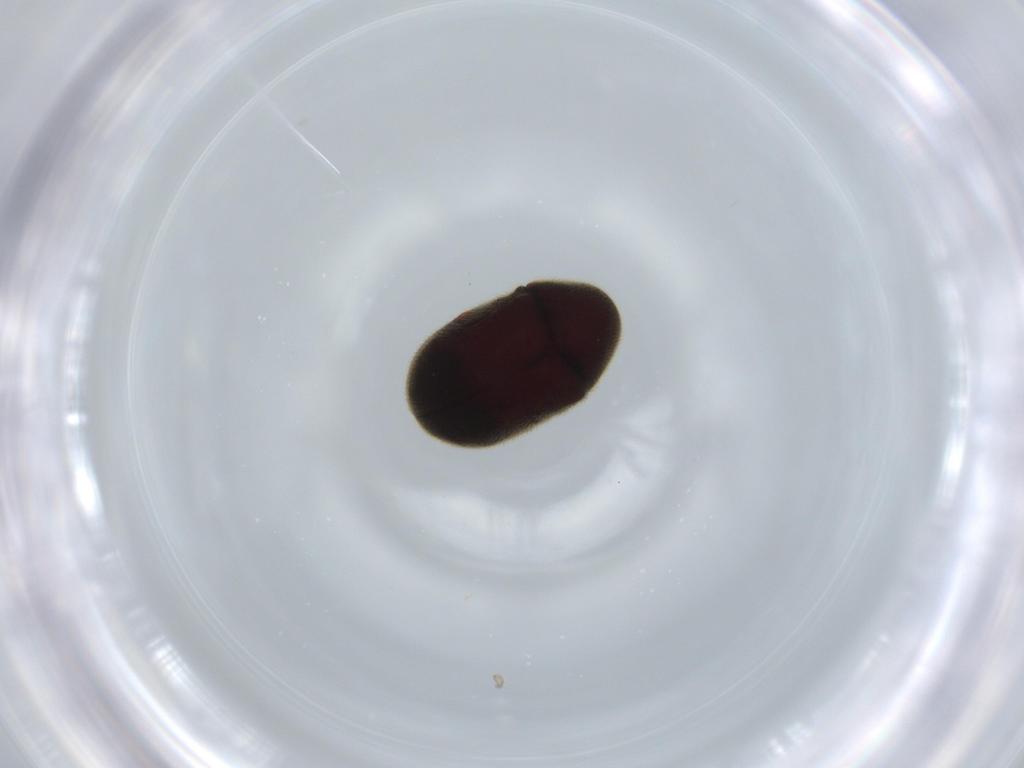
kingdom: Animalia
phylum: Arthropoda
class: Insecta
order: Coleoptera
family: Ptinidae
